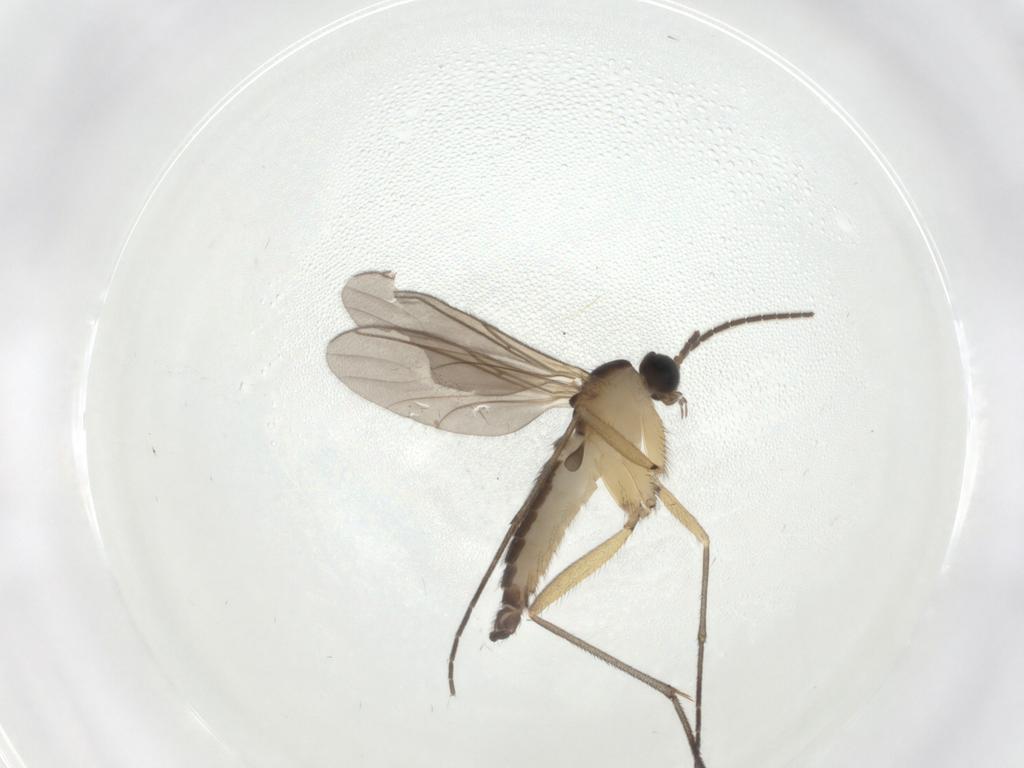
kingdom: Animalia
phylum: Arthropoda
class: Insecta
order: Diptera
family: Sciaridae
